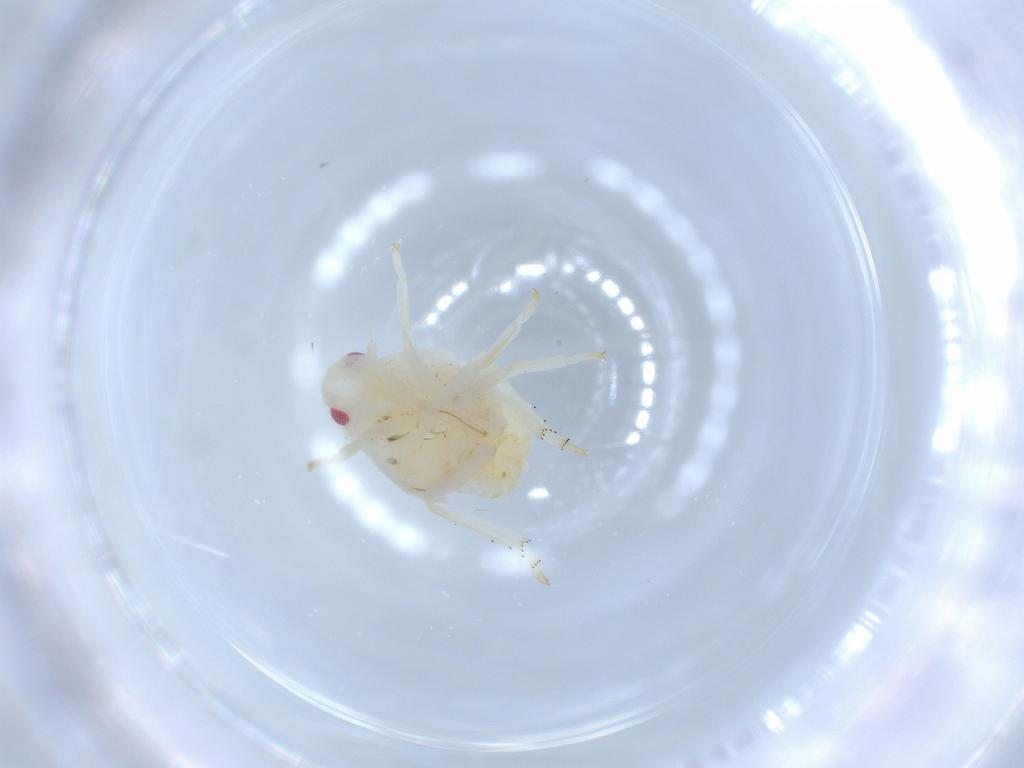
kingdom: Animalia
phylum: Arthropoda
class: Insecta
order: Hemiptera
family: Flatidae
